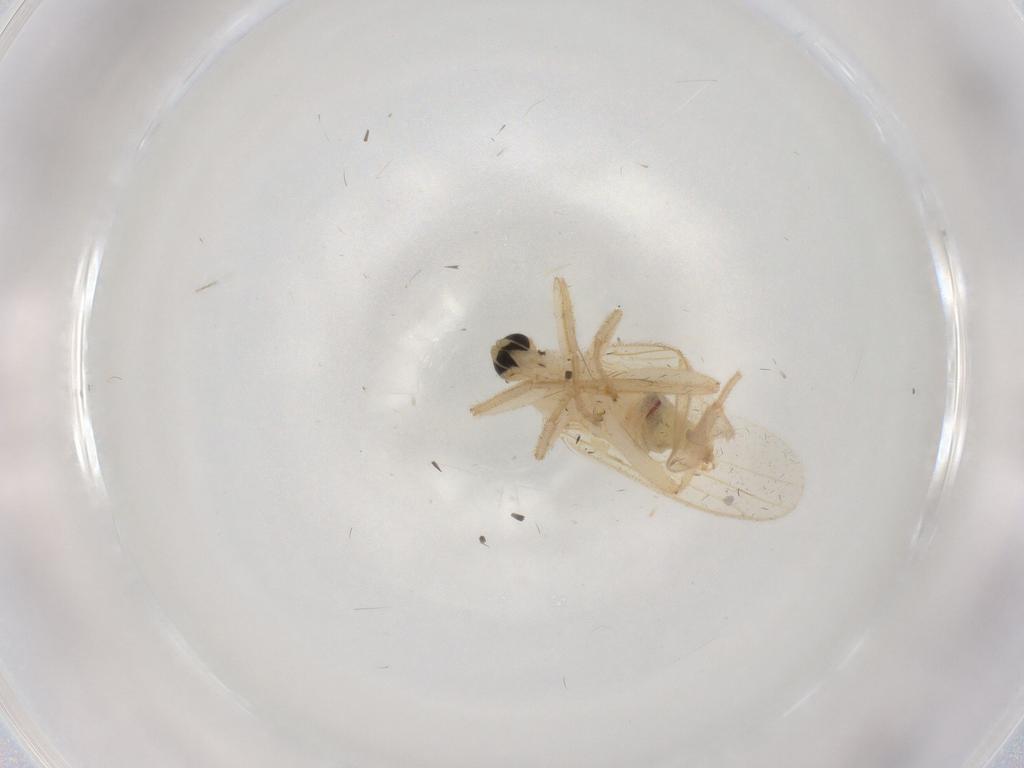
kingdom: Animalia
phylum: Arthropoda
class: Insecta
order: Diptera
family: Hybotidae
